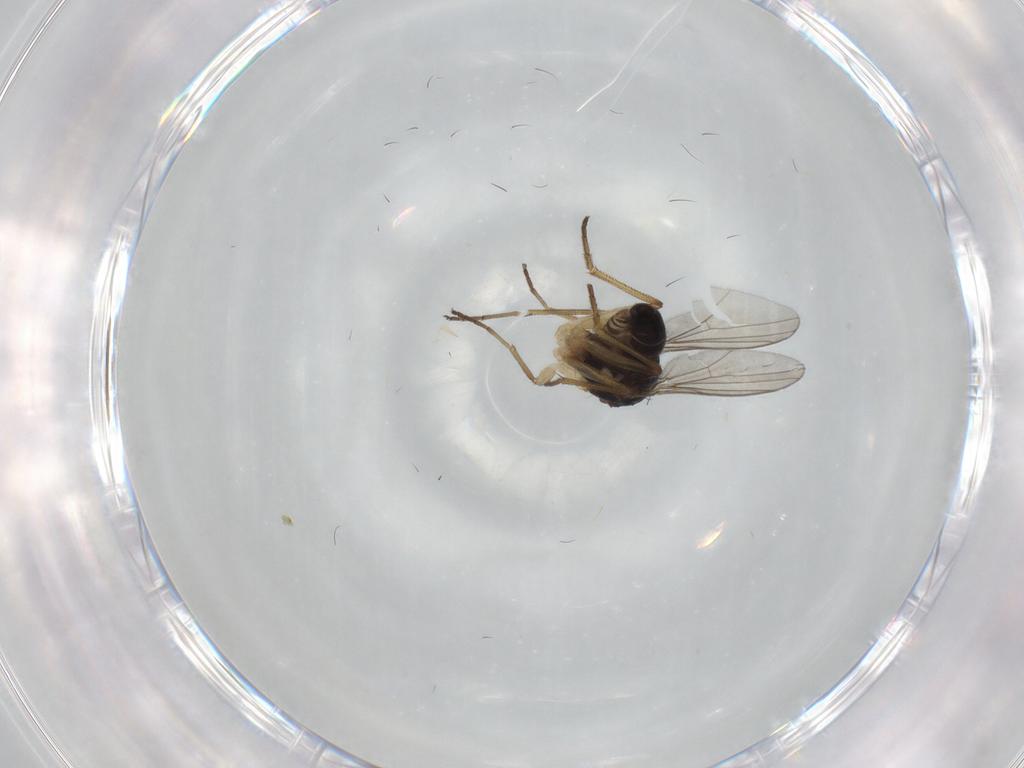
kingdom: Animalia
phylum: Arthropoda
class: Insecta
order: Diptera
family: Dolichopodidae
